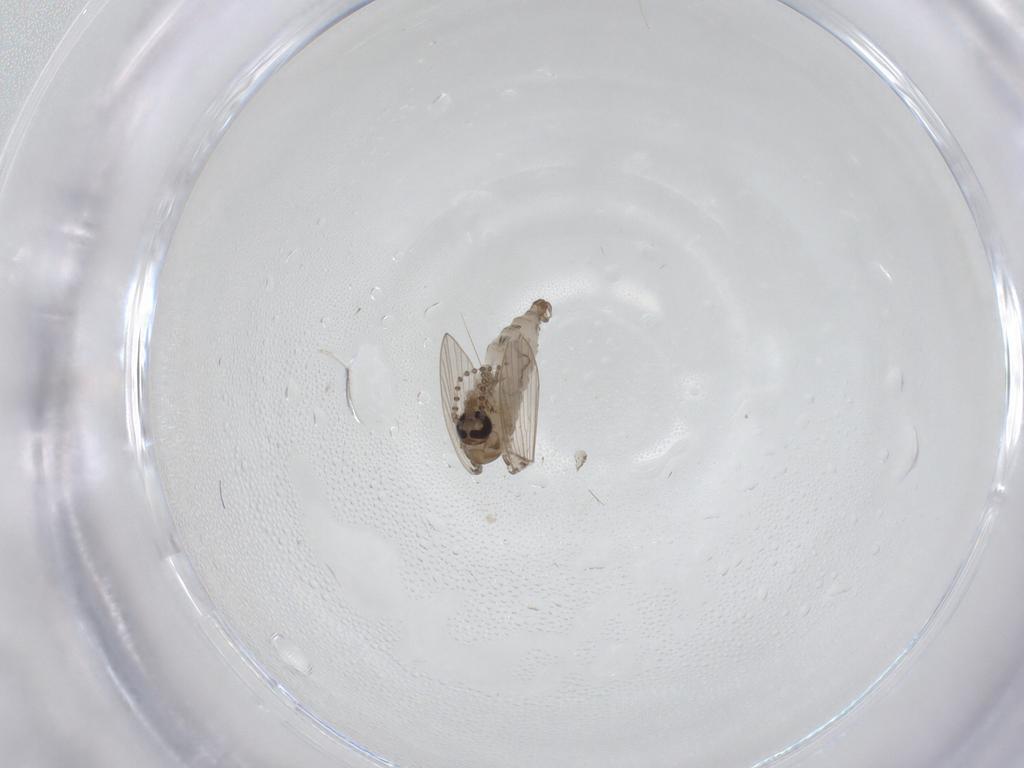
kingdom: Animalia
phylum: Arthropoda
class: Insecta
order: Diptera
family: Psychodidae
